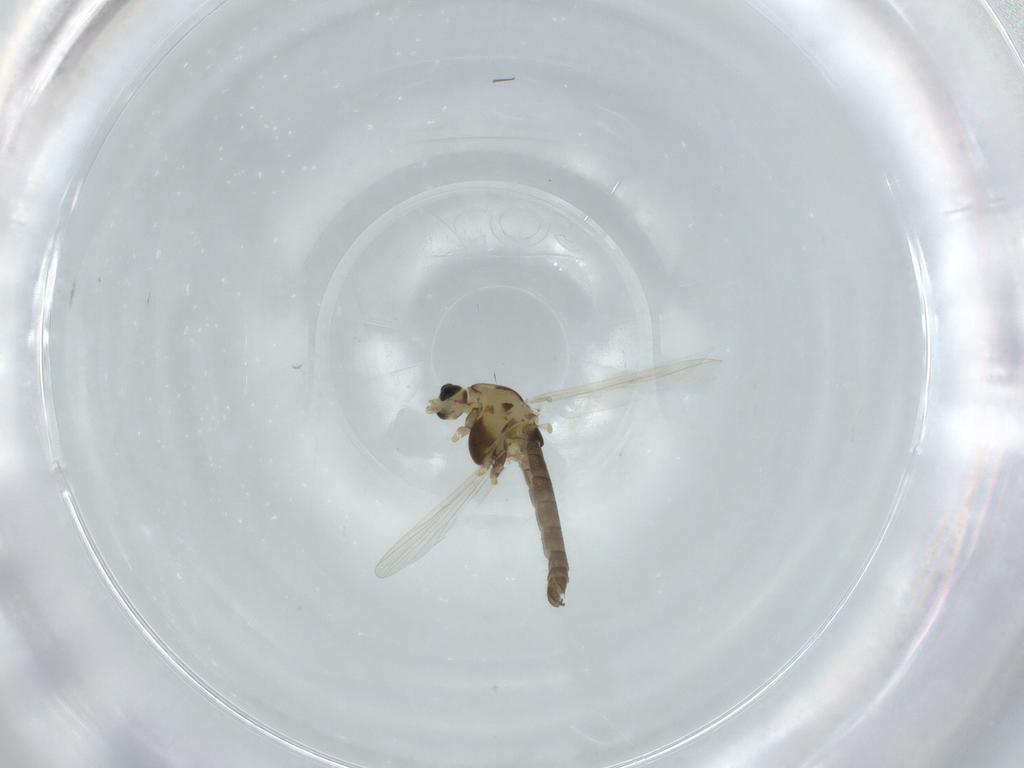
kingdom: Animalia
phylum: Arthropoda
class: Insecta
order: Diptera
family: Chironomidae
